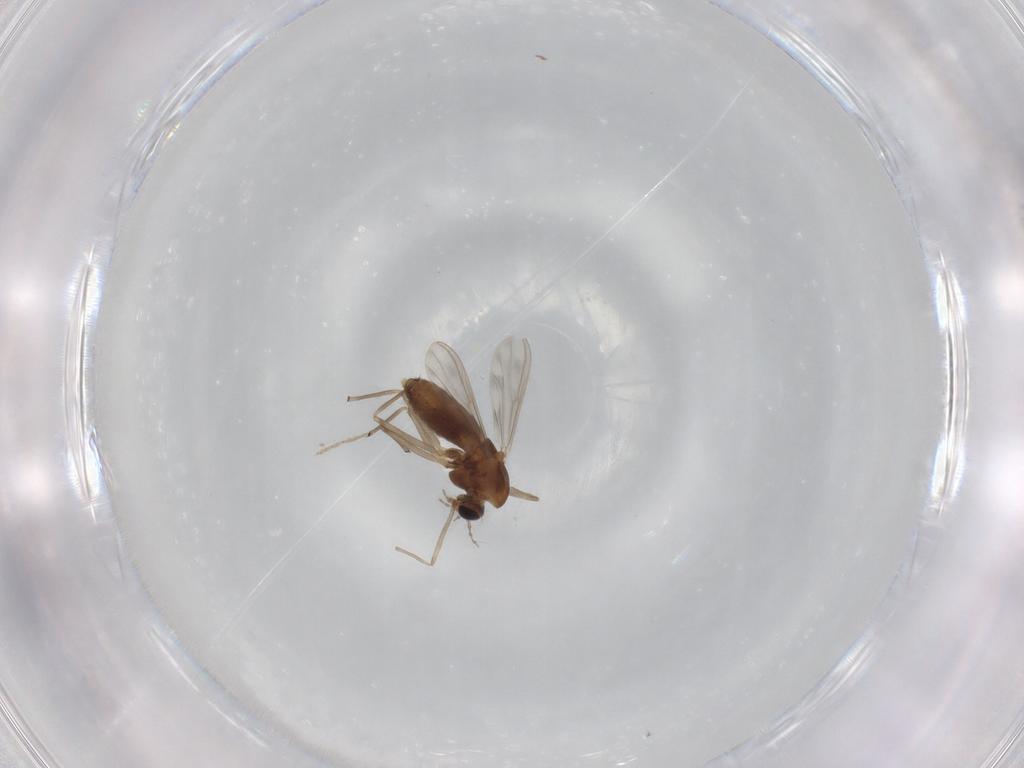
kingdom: Animalia
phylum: Arthropoda
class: Insecta
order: Diptera
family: Chironomidae
